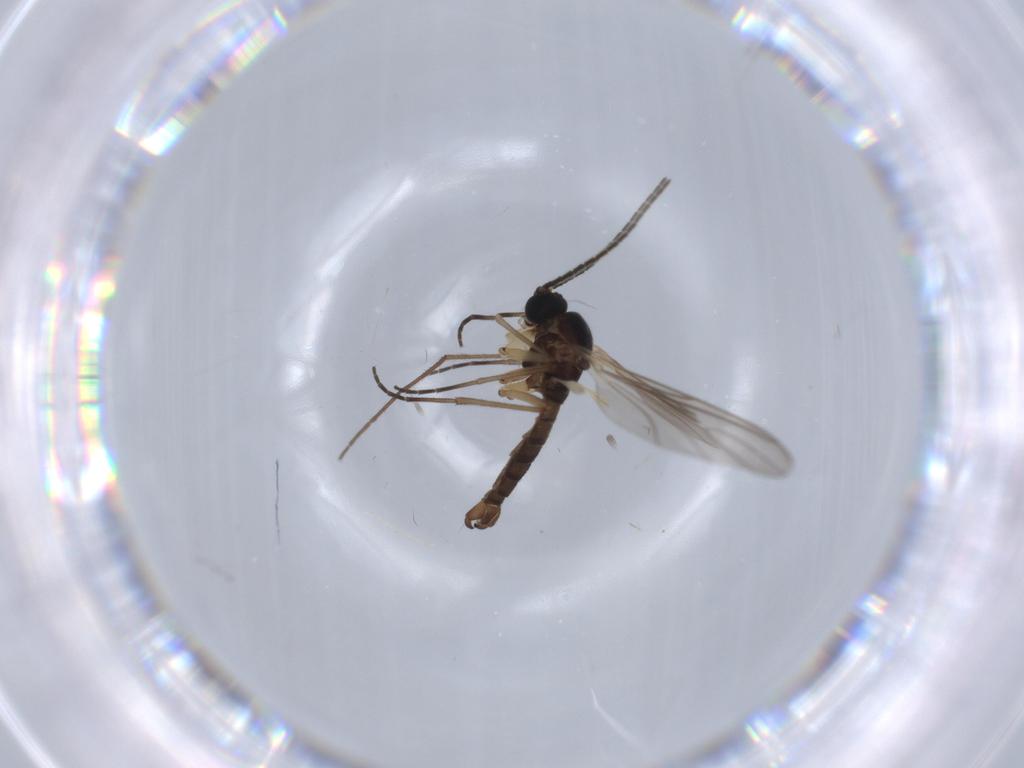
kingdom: Animalia
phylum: Arthropoda
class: Insecta
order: Diptera
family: Sciaridae
